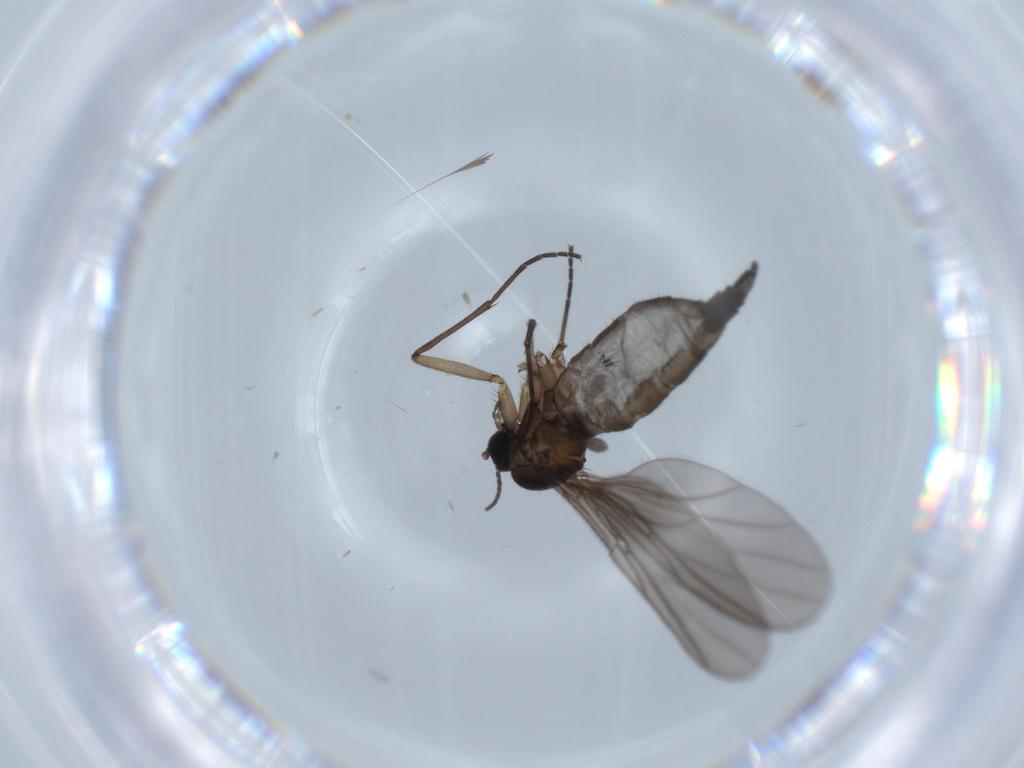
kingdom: Animalia
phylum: Arthropoda
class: Insecta
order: Diptera
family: Sciaridae
